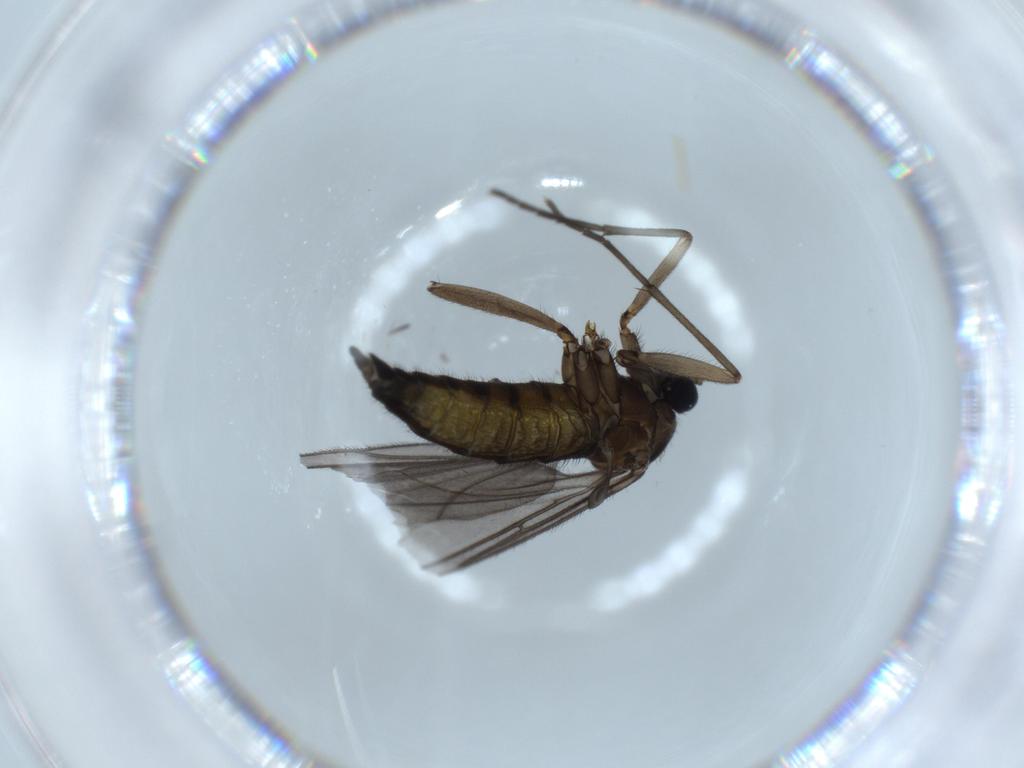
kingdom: Animalia
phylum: Arthropoda
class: Insecta
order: Diptera
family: Sciaridae
